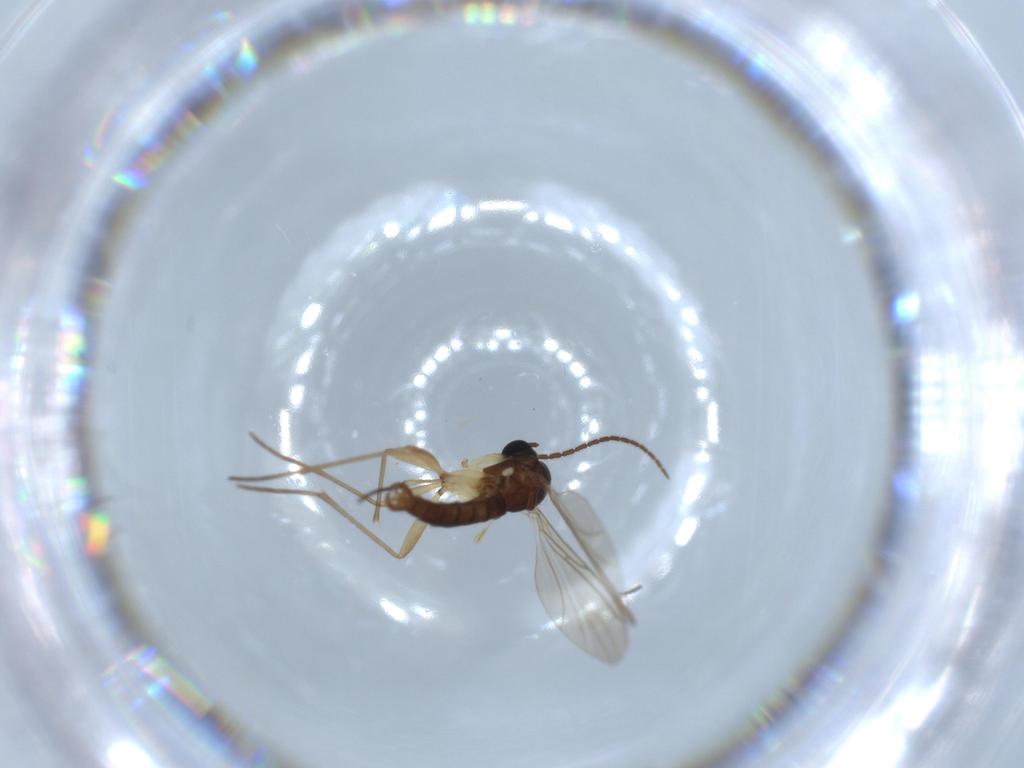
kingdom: Animalia
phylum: Arthropoda
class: Insecta
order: Diptera
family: Sciaridae
